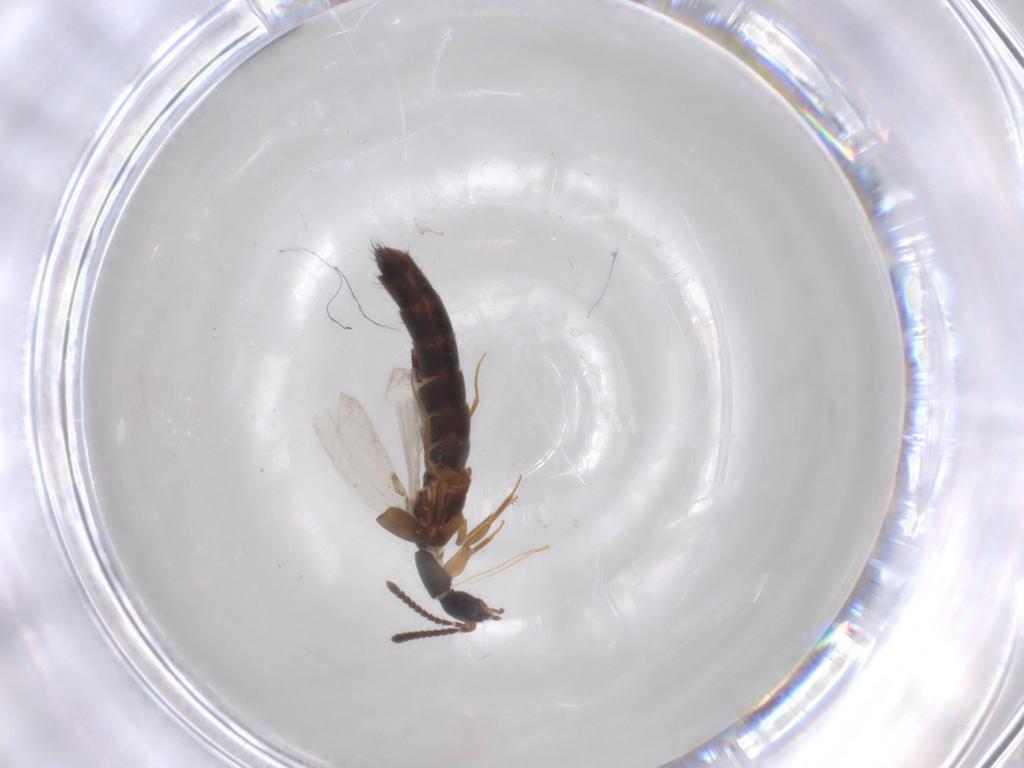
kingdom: Animalia
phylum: Arthropoda
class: Insecta
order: Coleoptera
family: Staphylinidae
